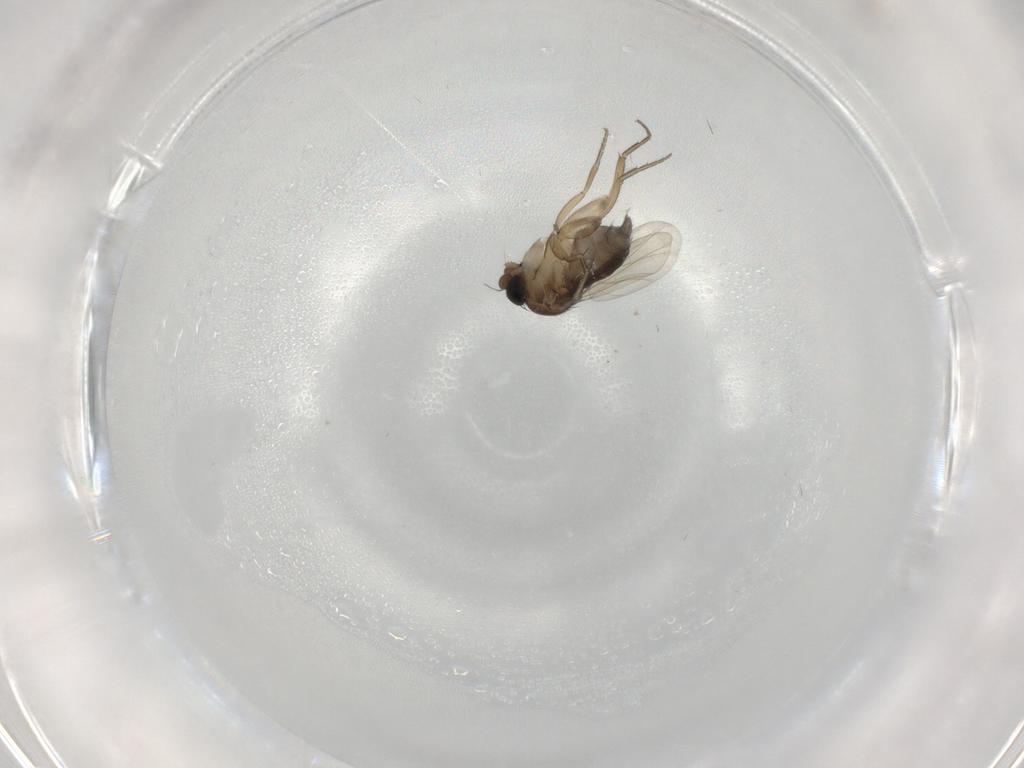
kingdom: Animalia
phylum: Arthropoda
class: Insecta
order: Diptera
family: Phoridae
